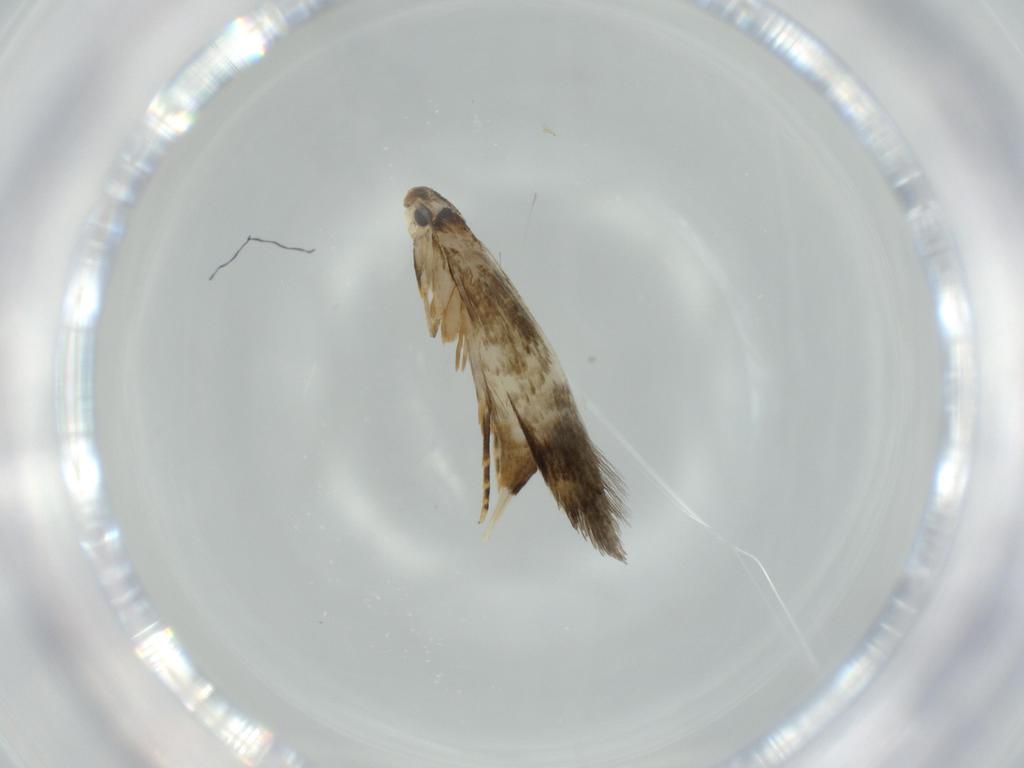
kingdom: Animalia
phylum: Arthropoda
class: Insecta
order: Lepidoptera
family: Tineidae
